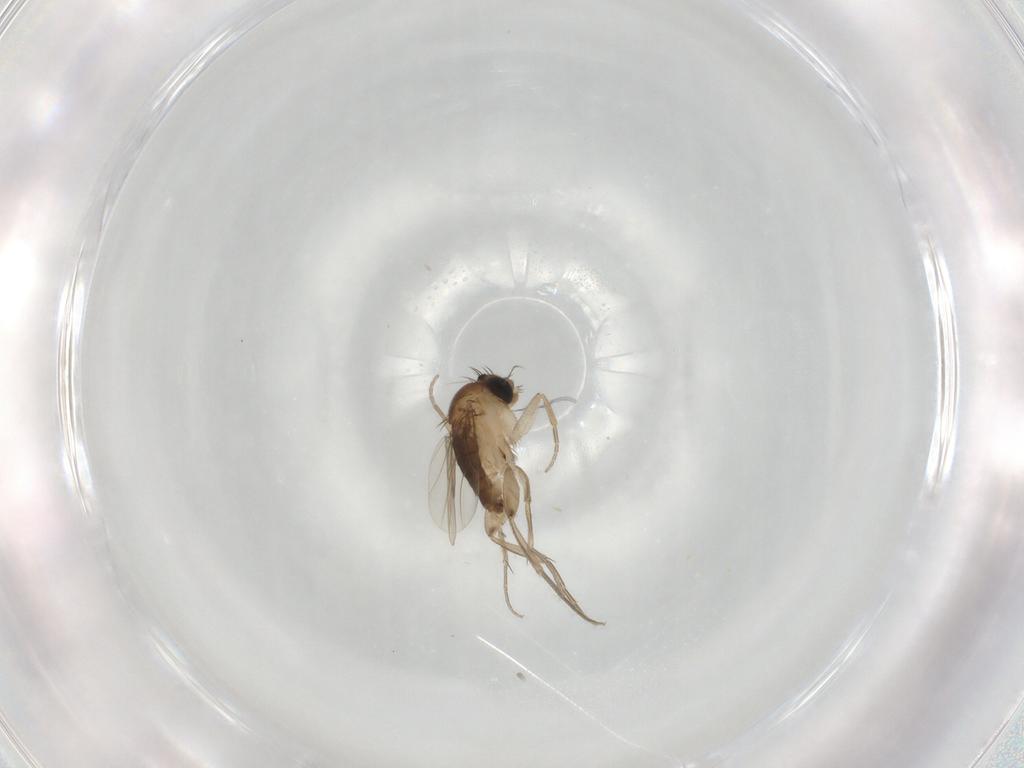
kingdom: Animalia
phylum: Arthropoda
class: Insecta
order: Diptera
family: Phoridae
